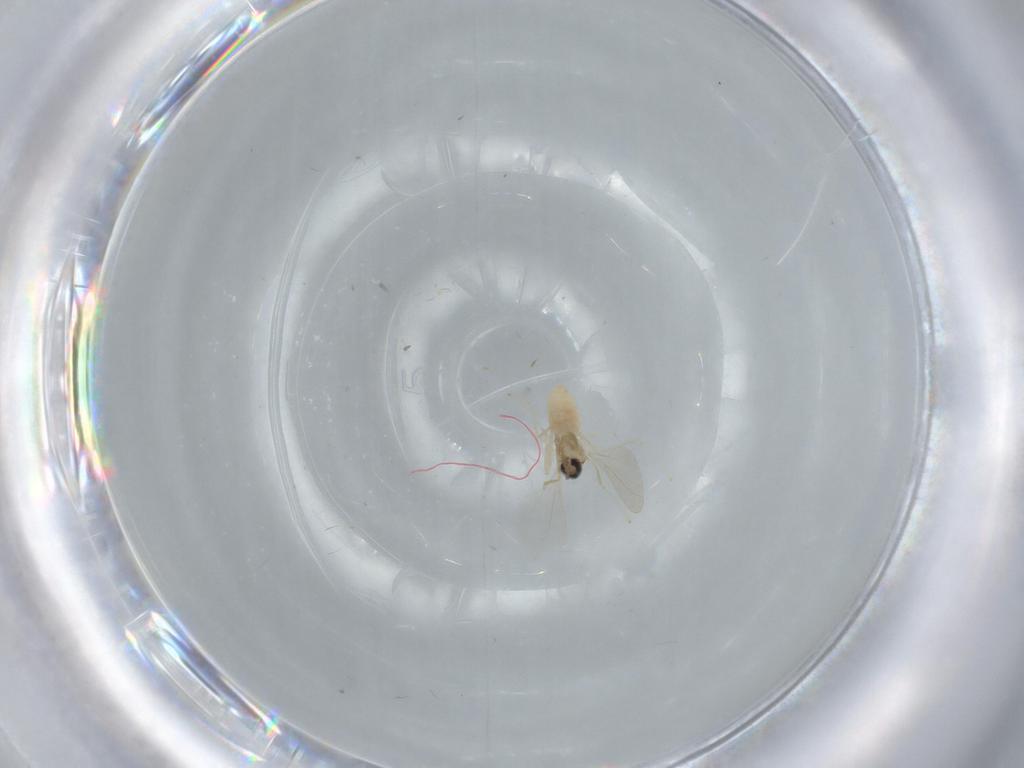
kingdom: Animalia
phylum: Arthropoda
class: Insecta
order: Diptera
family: Cecidomyiidae
